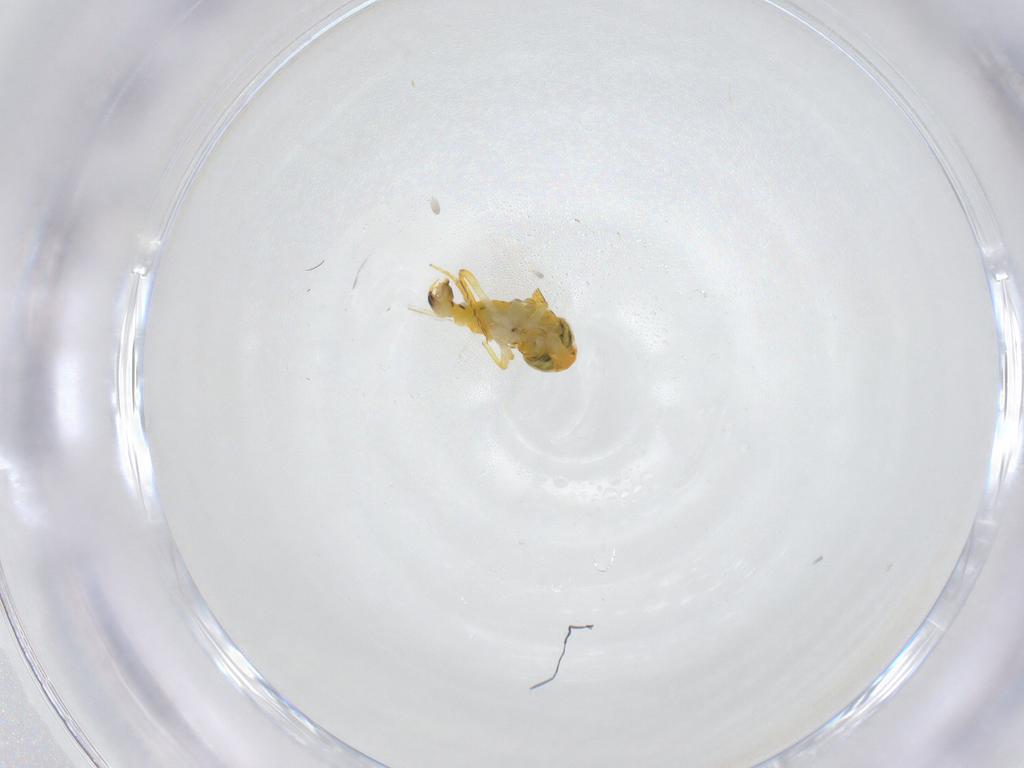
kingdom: Animalia
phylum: Arthropoda
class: Insecta
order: Hemiptera
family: Cicadellidae
